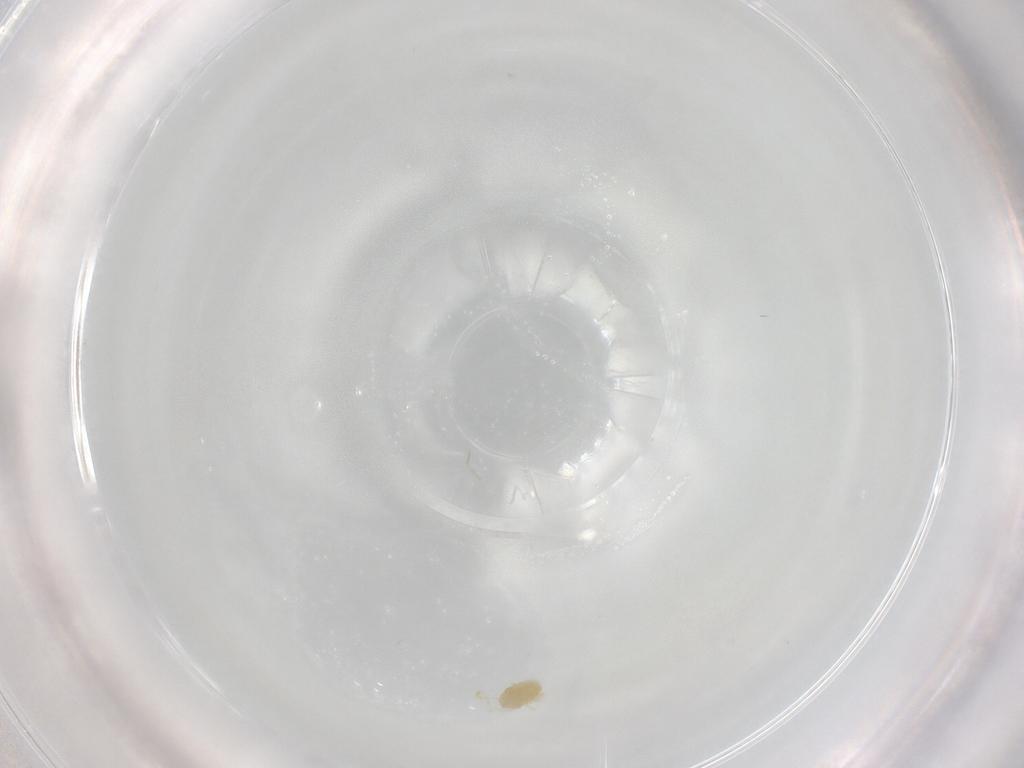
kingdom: Animalia
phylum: Arthropoda
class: Arachnida
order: Trombidiformes
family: Eupodidae
